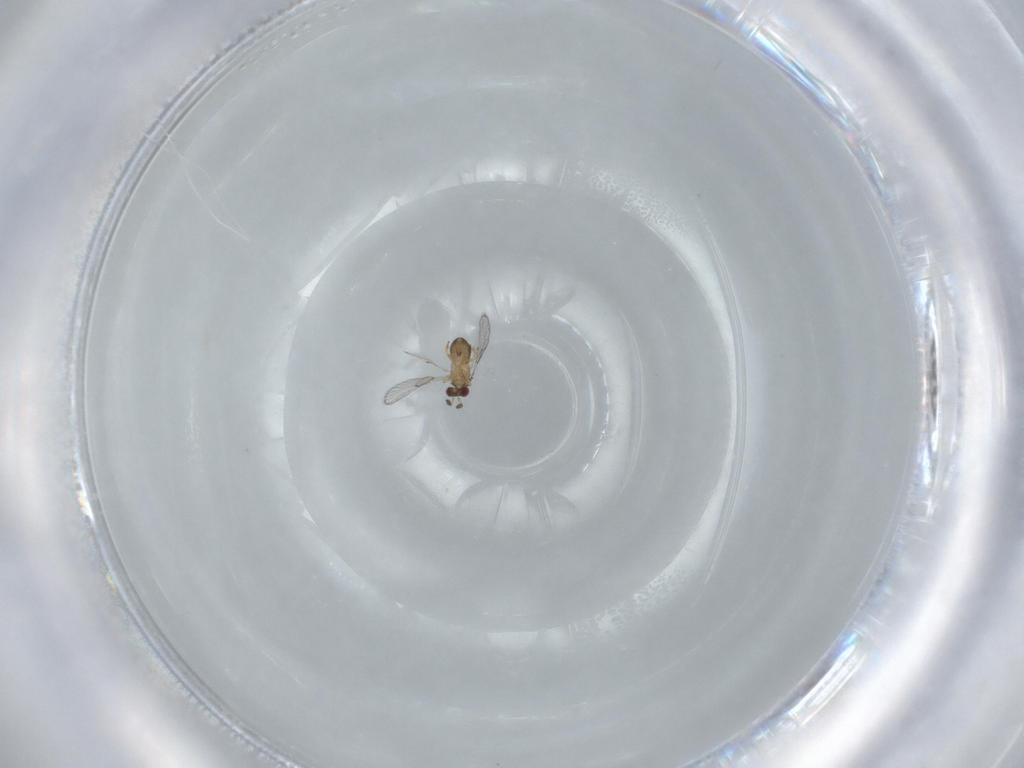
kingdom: Animalia
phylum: Arthropoda
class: Insecta
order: Hymenoptera
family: Trichogrammatidae
